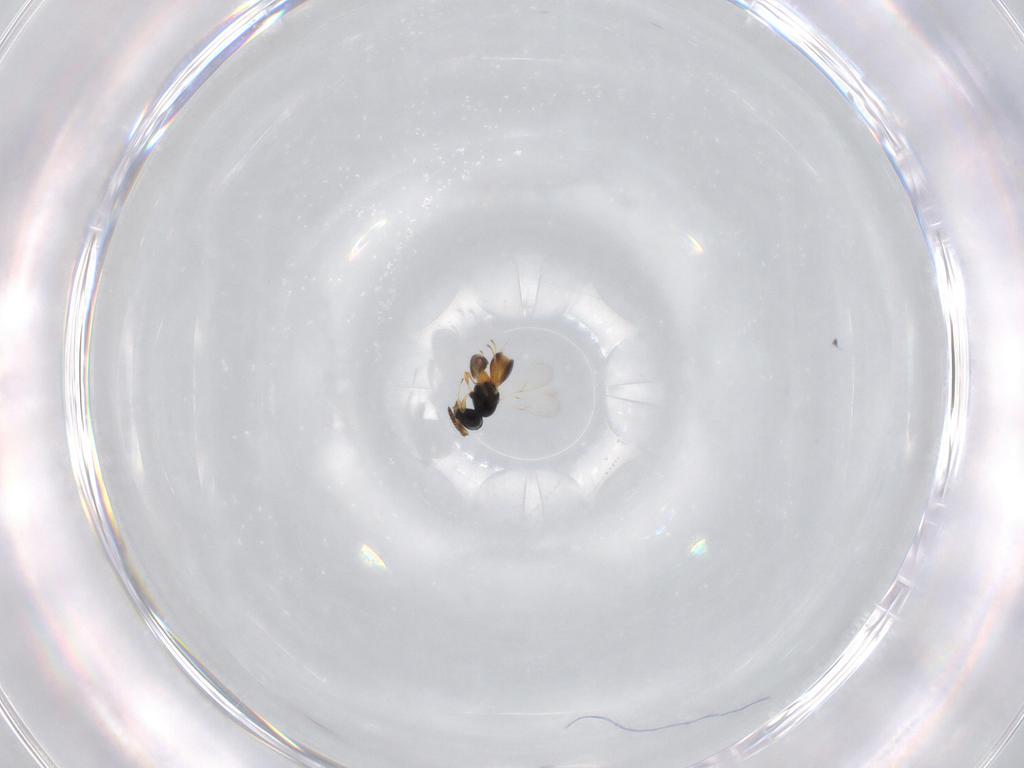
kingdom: Animalia
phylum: Arthropoda
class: Insecta
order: Hymenoptera
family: Scelionidae
